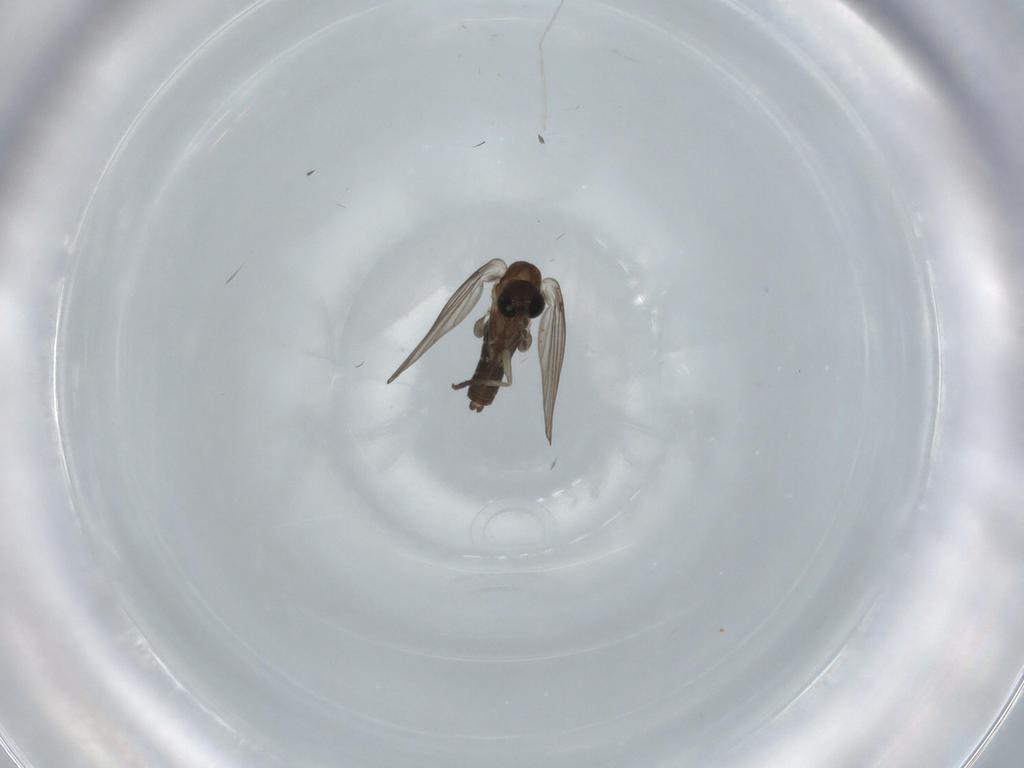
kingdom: Animalia
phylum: Arthropoda
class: Insecta
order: Diptera
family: Psychodidae
